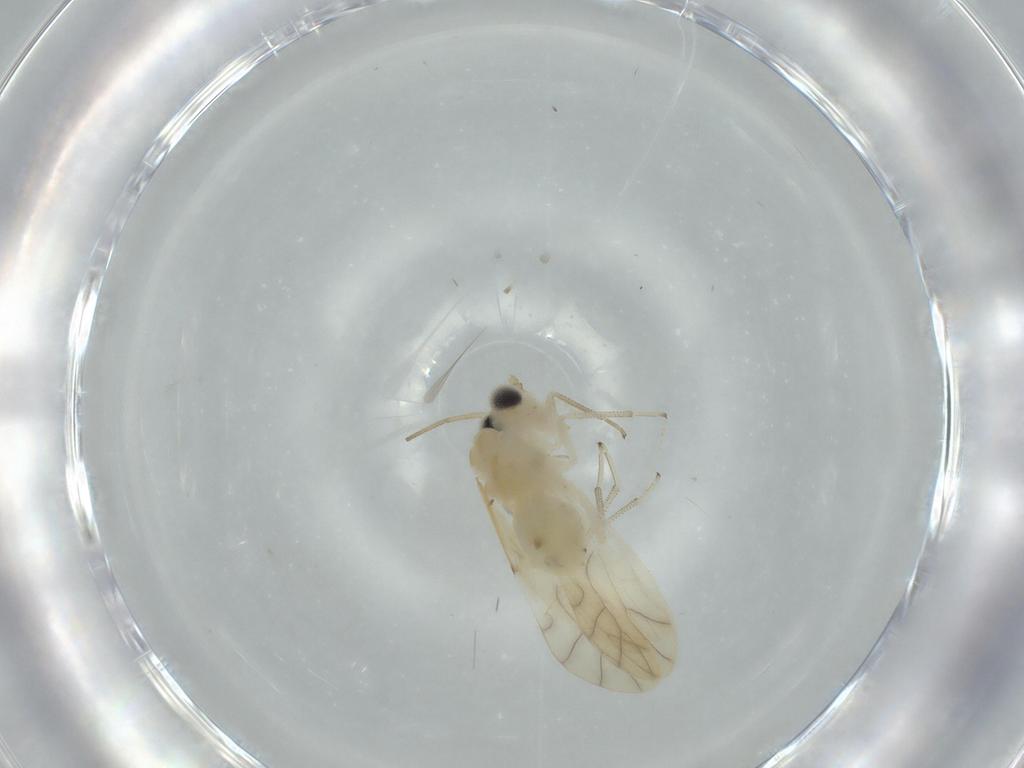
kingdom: Animalia
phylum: Arthropoda
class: Insecta
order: Psocodea
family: Caeciliusidae
